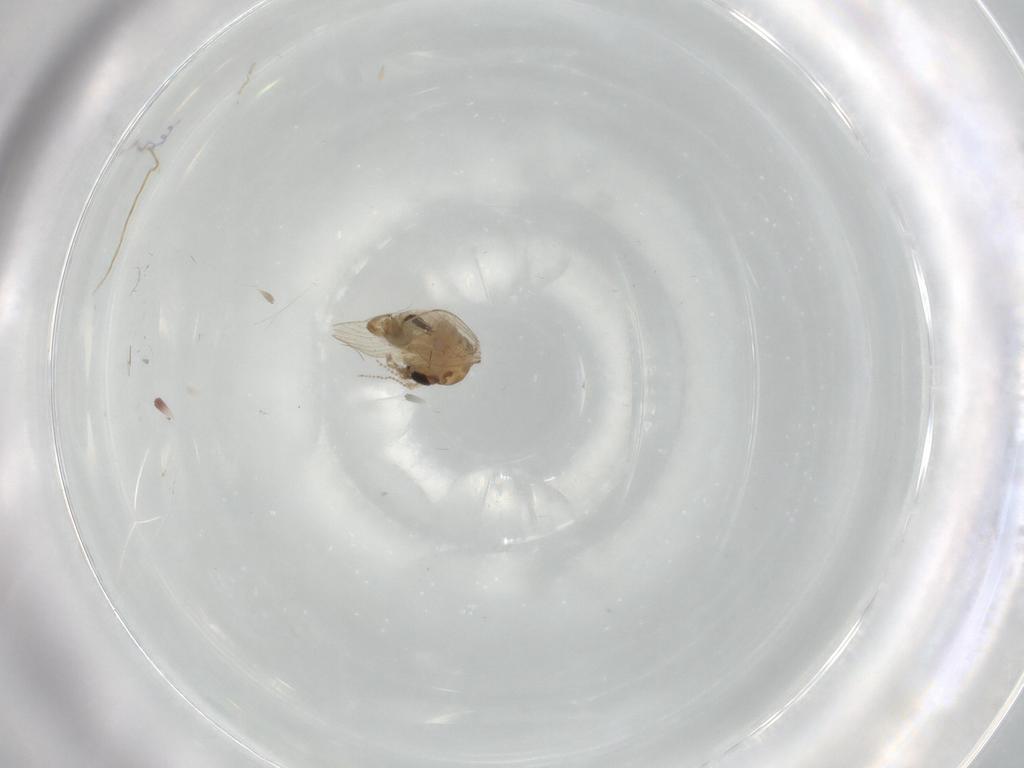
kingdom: Animalia
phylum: Arthropoda
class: Insecta
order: Diptera
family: Psychodidae
